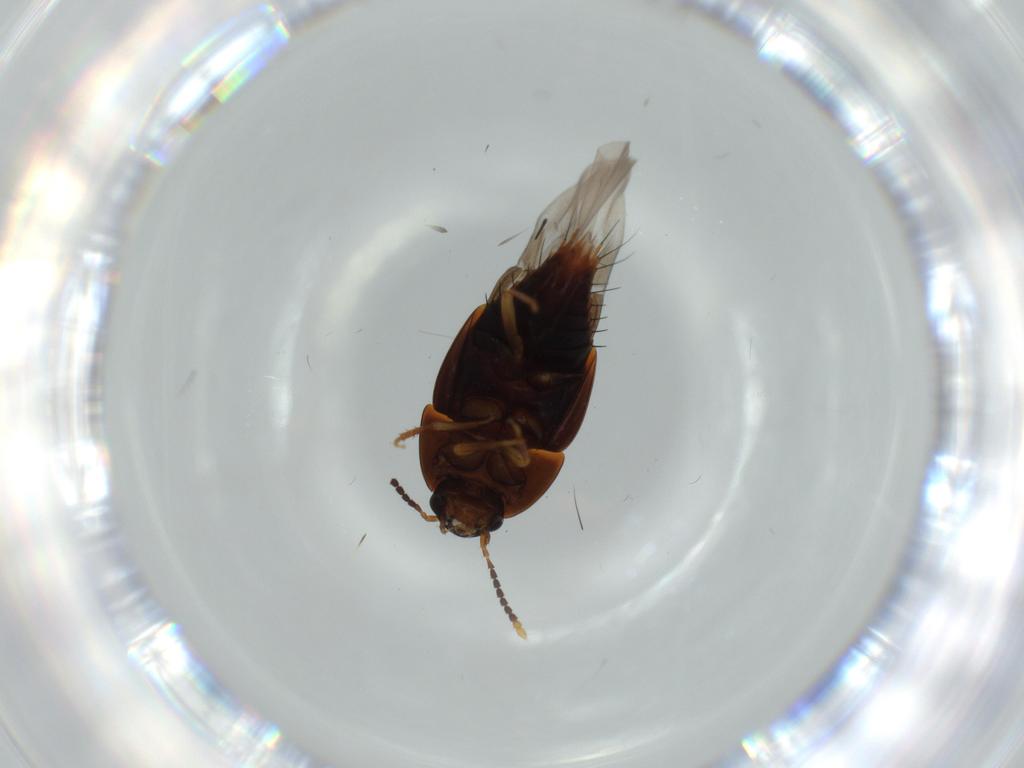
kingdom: Animalia
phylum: Arthropoda
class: Insecta
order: Coleoptera
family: Staphylinidae
